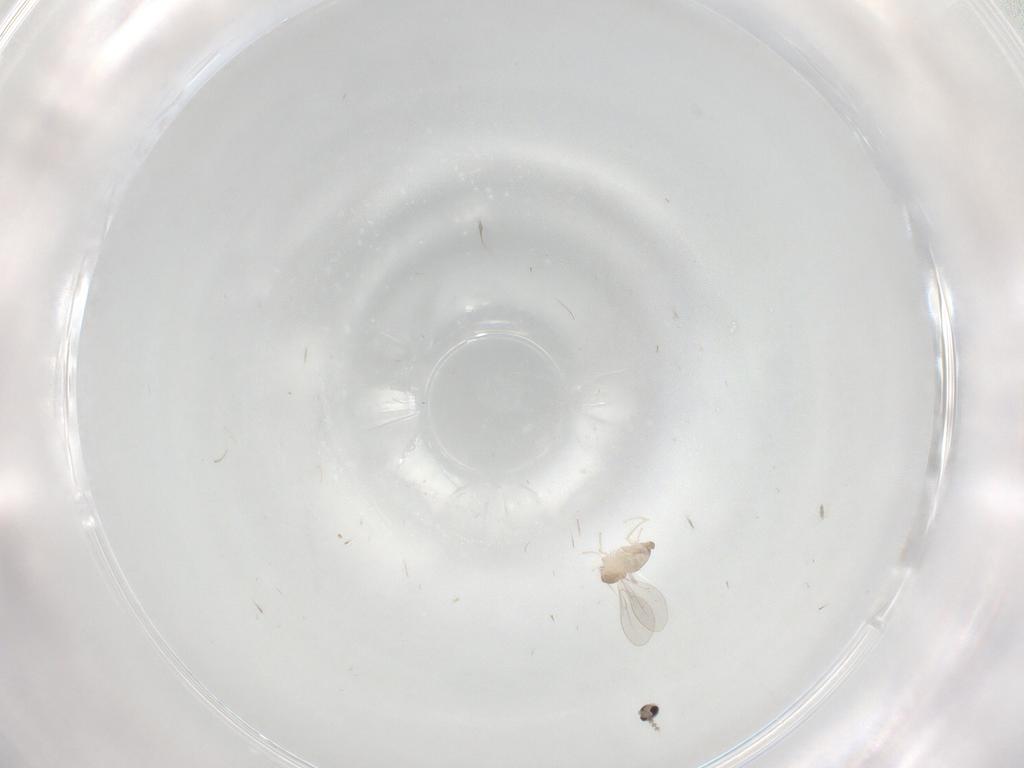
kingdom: Animalia
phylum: Arthropoda
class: Insecta
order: Diptera
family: Cecidomyiidae
